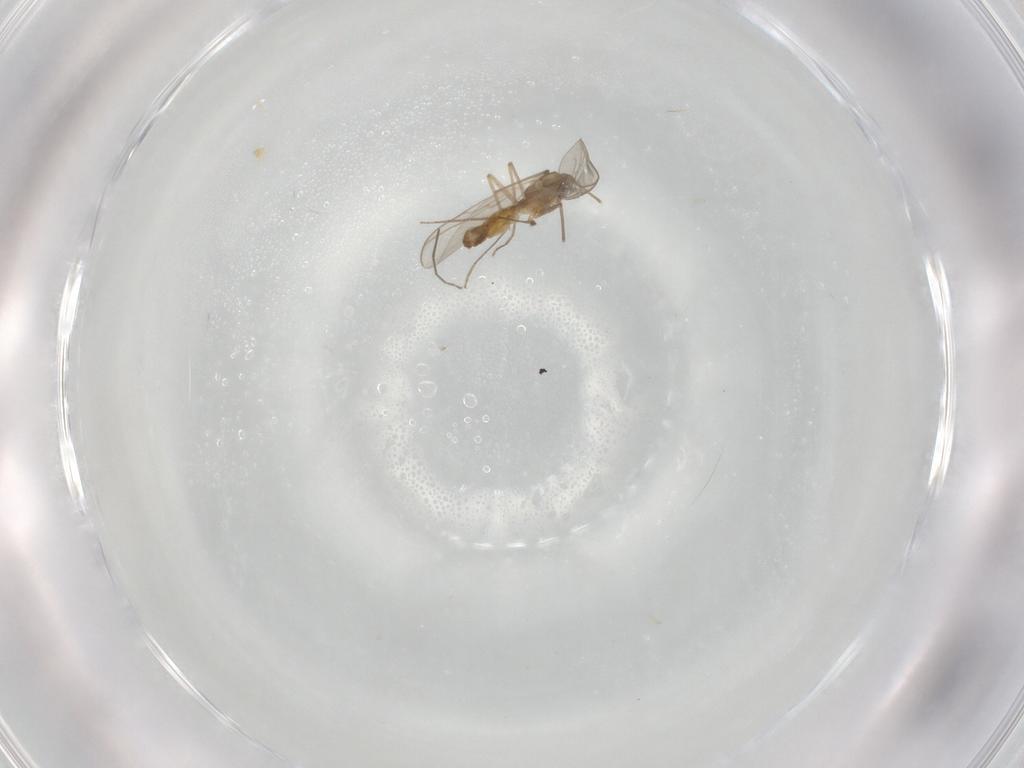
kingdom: Animalia
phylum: Arthropoda
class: Insecta
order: Diptera
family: Chironomidae
